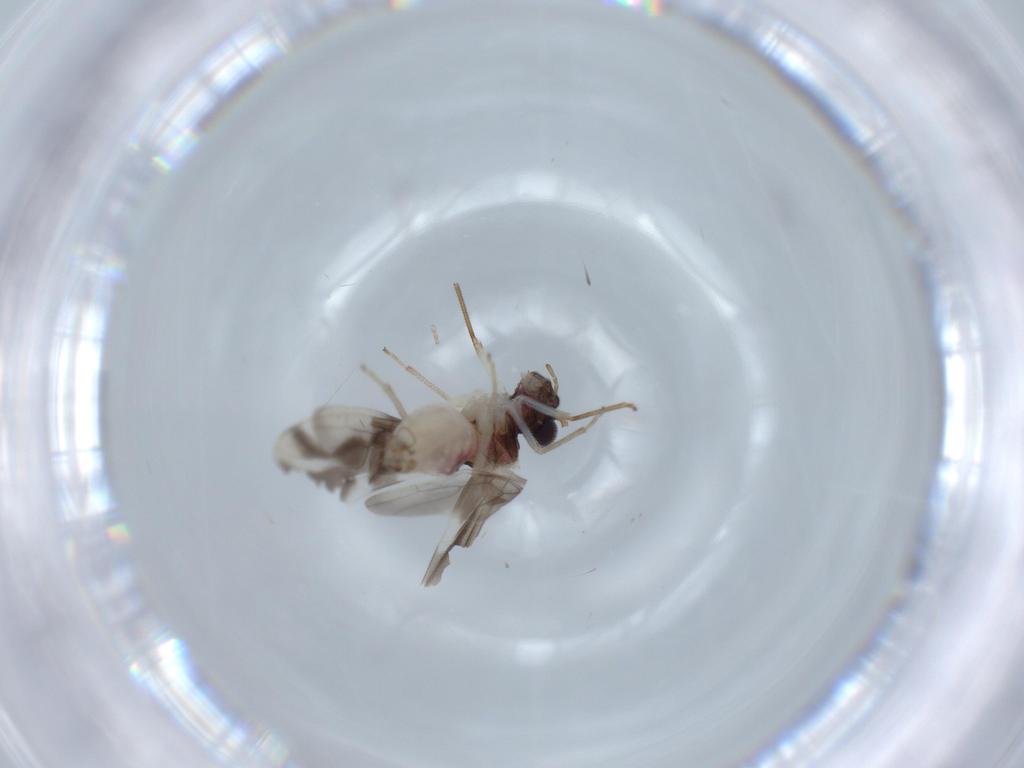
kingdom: Animalia
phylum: Arthropoda
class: Insecta
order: Psocodea
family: Caeciliusidae
